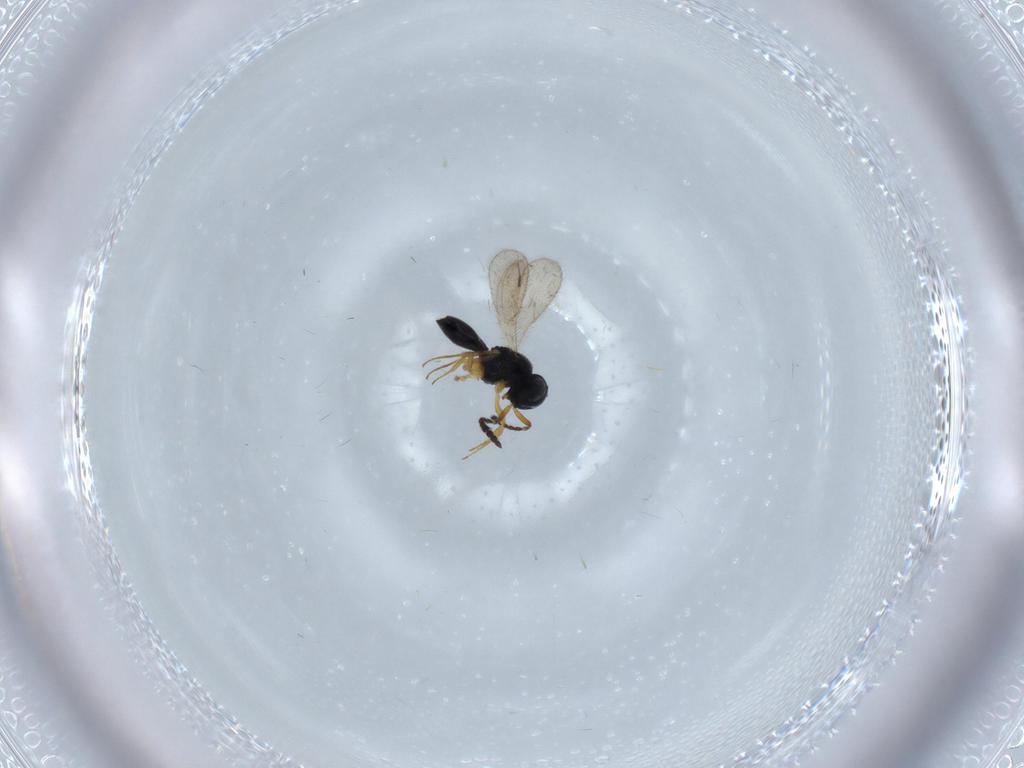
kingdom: Animalia
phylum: Arthropoda
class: Insecta
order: Hymenoptera
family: Scelionidae
